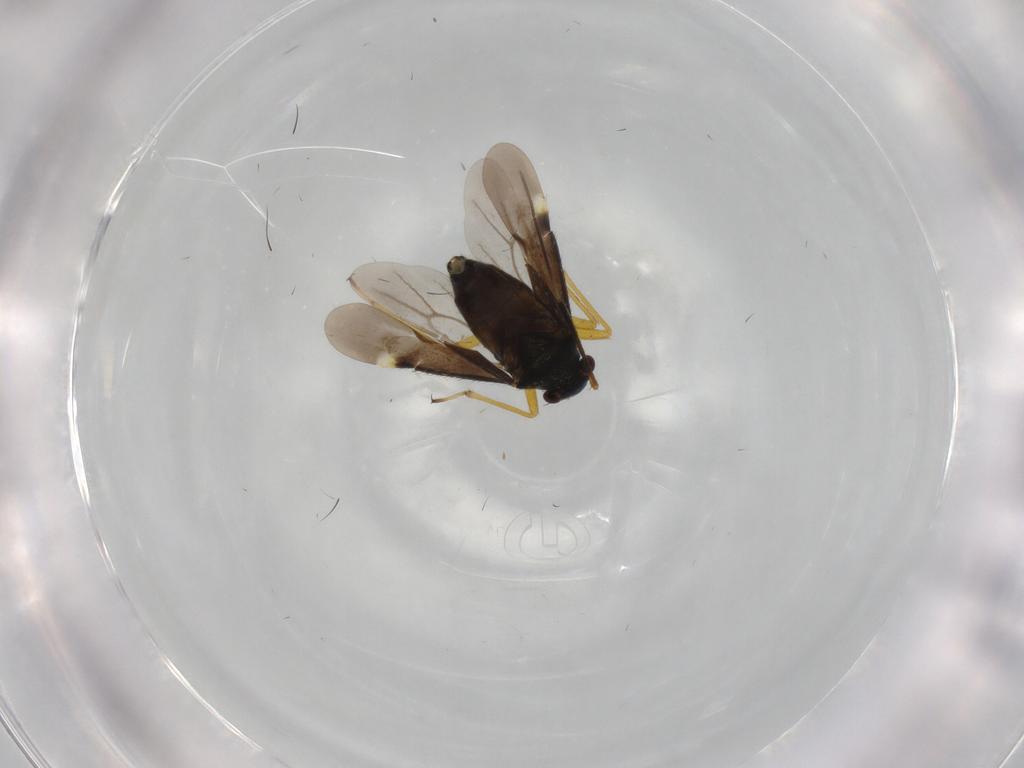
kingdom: Animalia
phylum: Arthropoda
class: Insecta
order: Hemiptera
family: Miridae
